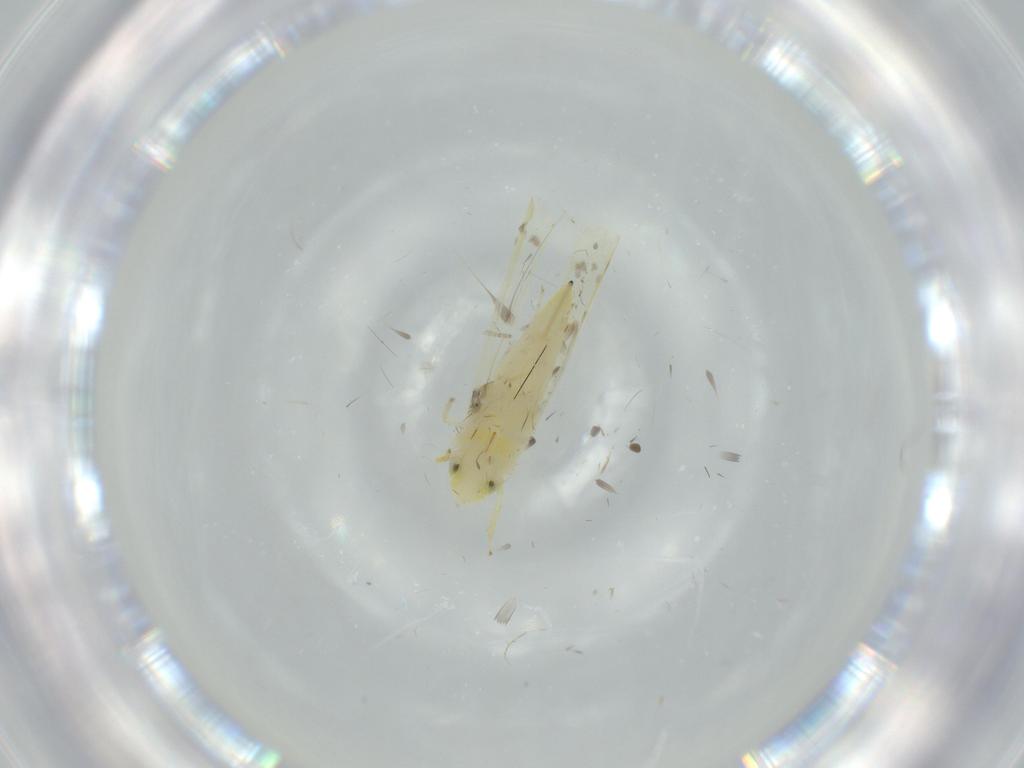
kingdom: Animalia
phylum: Arthropoda
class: Insecta
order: Hemiptera
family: Cicadellidae
